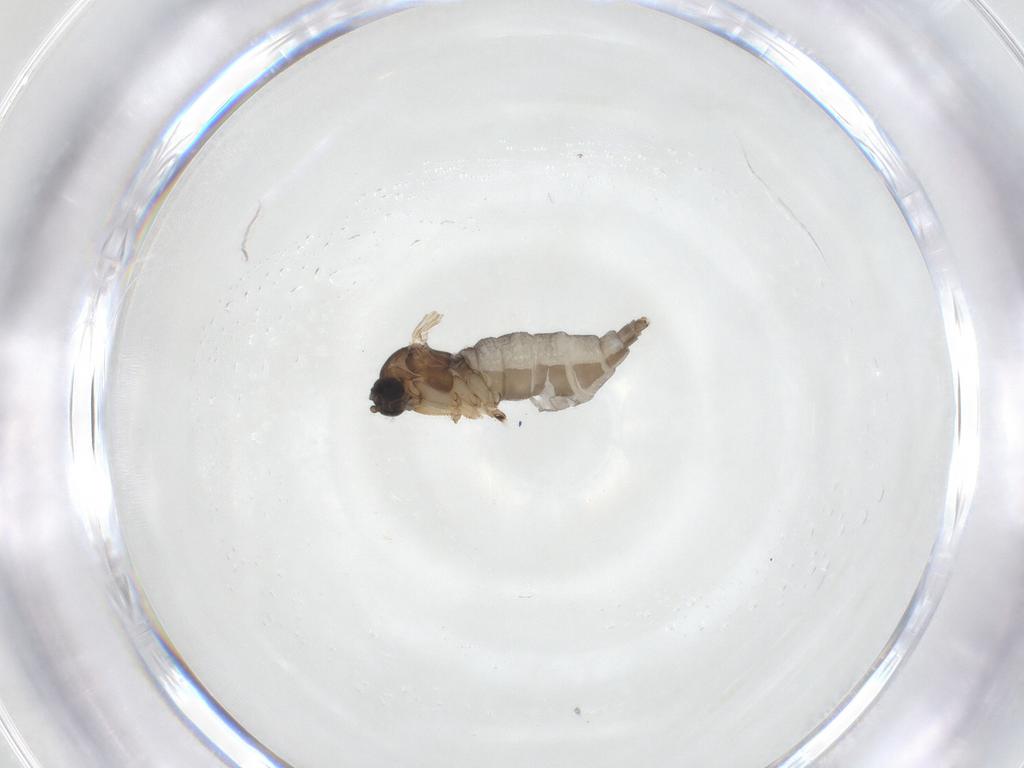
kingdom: Animalia
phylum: Arthropoda
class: Insecta
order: Diptera
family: Sciaridae
